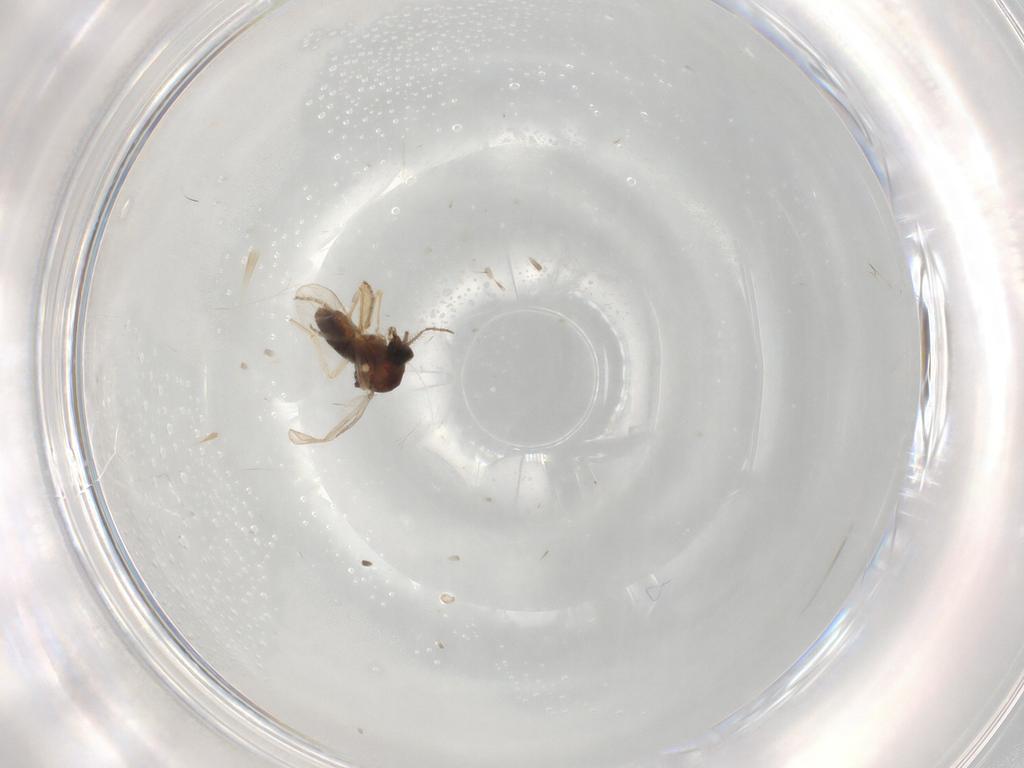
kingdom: Animalia
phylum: Arthropoda
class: Insecta
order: Diptera
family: Ceratopogonidae
